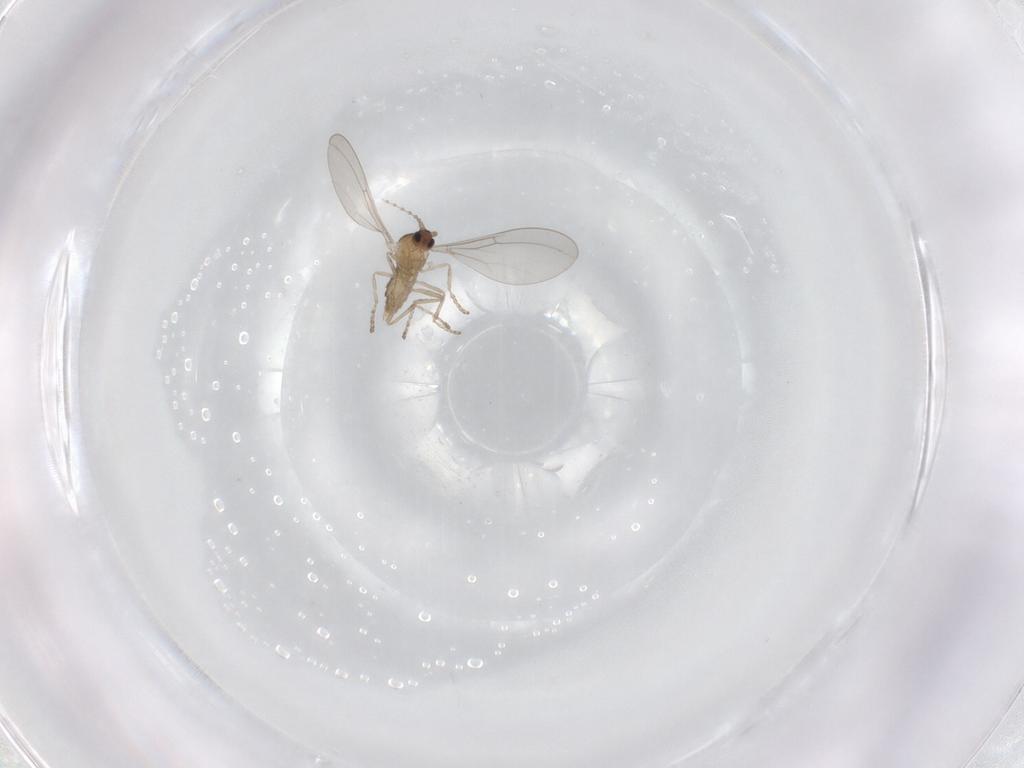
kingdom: Animalia
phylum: Arthropoda
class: Insecta
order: Diptera
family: Cecidomyiidae
